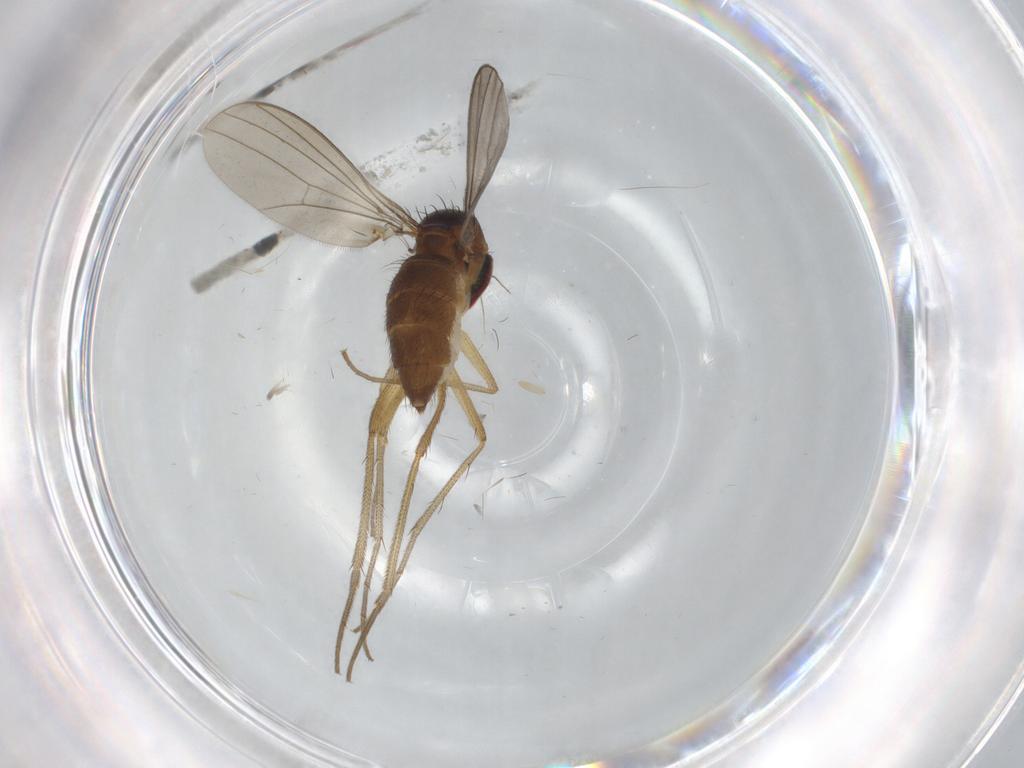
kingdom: Animalia
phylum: Arthropoda
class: Insecta
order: Diptera
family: Dolichopodidae
